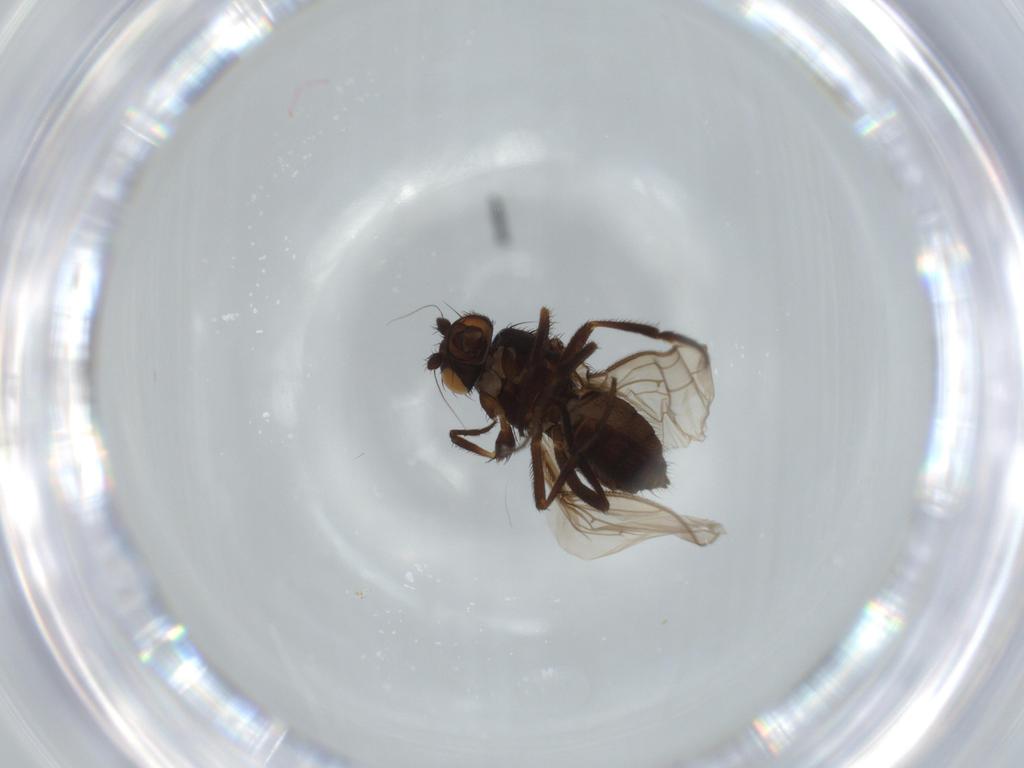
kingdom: Animalia
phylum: Arthropoda
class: Insecta
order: Diptera
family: Sphaeroceridae
